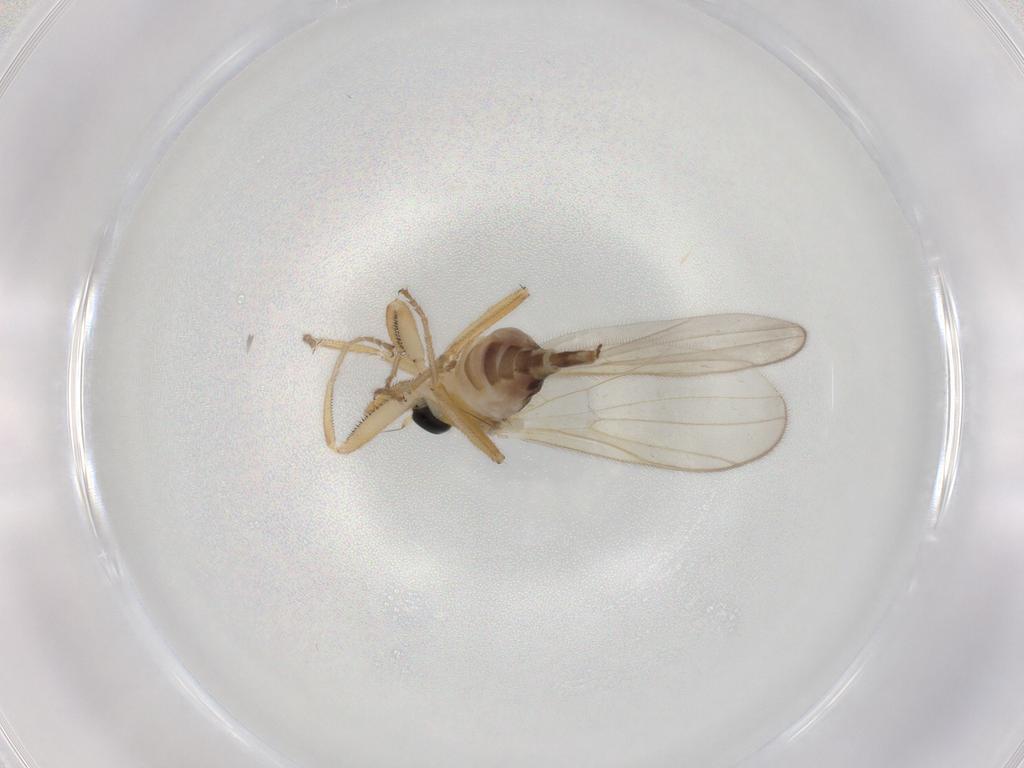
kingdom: Animalia
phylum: Arthropoda
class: Insecta
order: Diptera
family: Hybotidae
